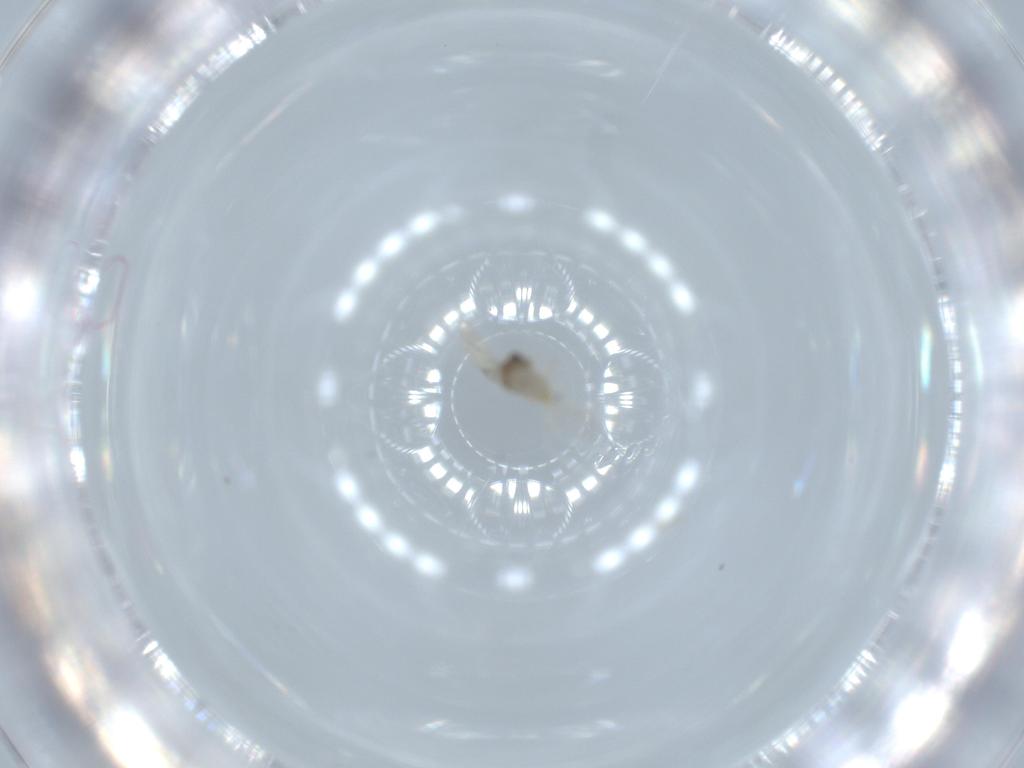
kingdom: Animalia
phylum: Arthropoda
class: Insecta
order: Diptera
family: Cecidomyiidae
